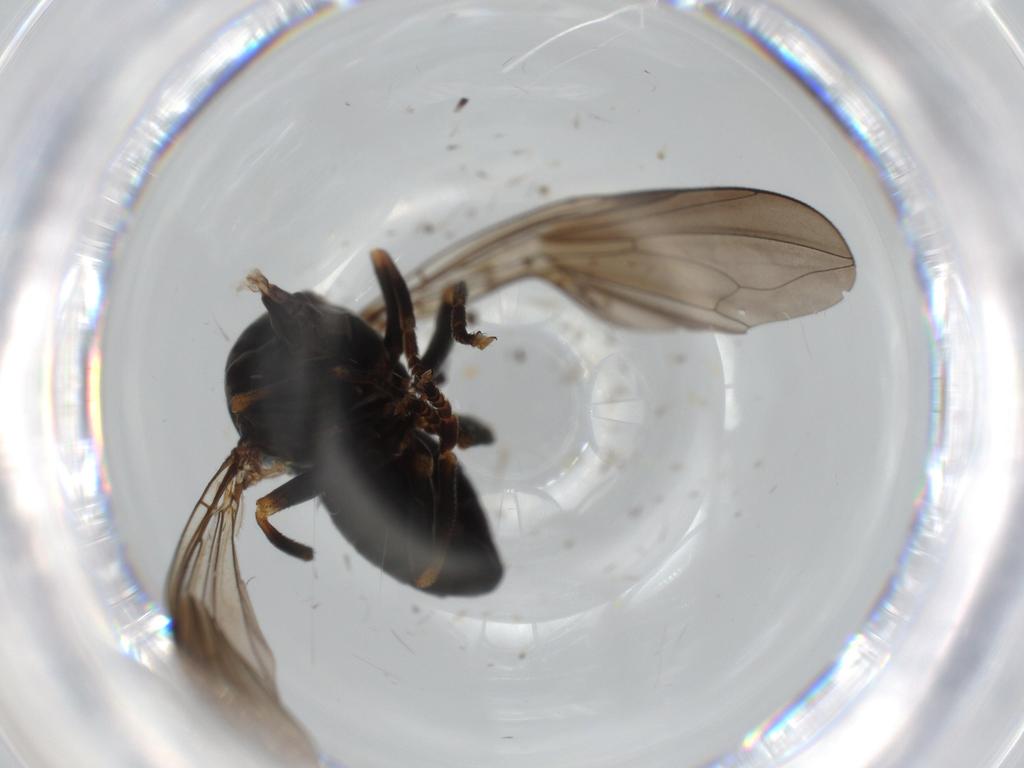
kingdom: Animalia
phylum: Arthropoda
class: Insecta
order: Diptera
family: Pipunculidae
